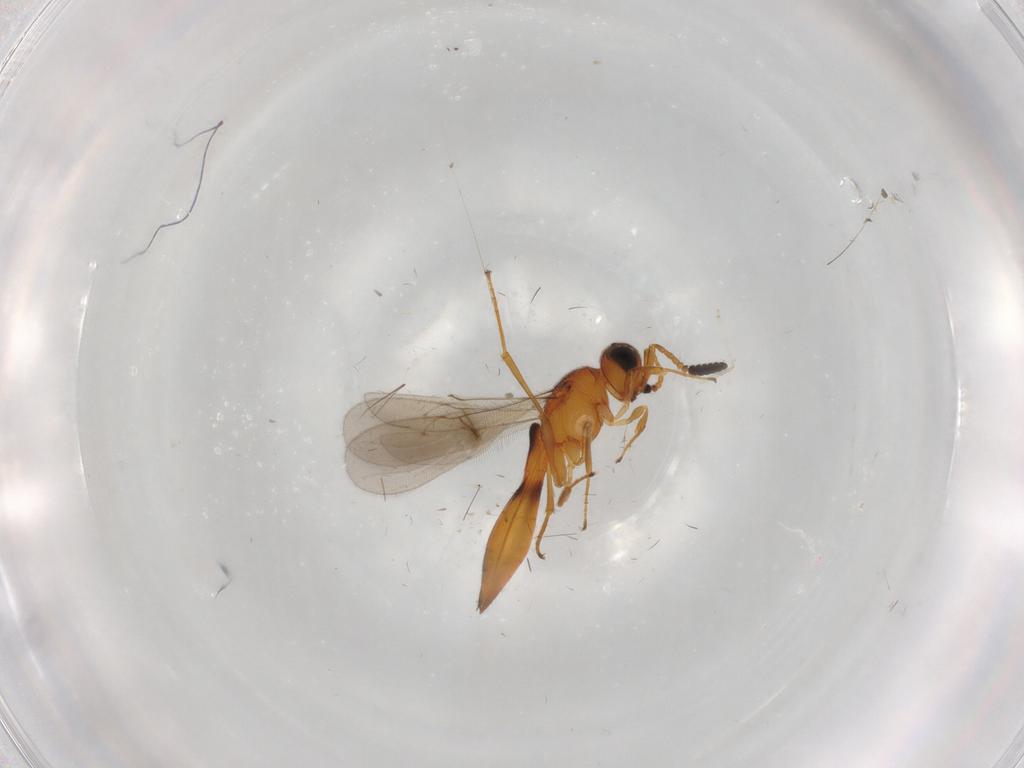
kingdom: Animalia
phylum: Arthropoda
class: Insecta
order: Hymenoptera
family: Scelionidae
